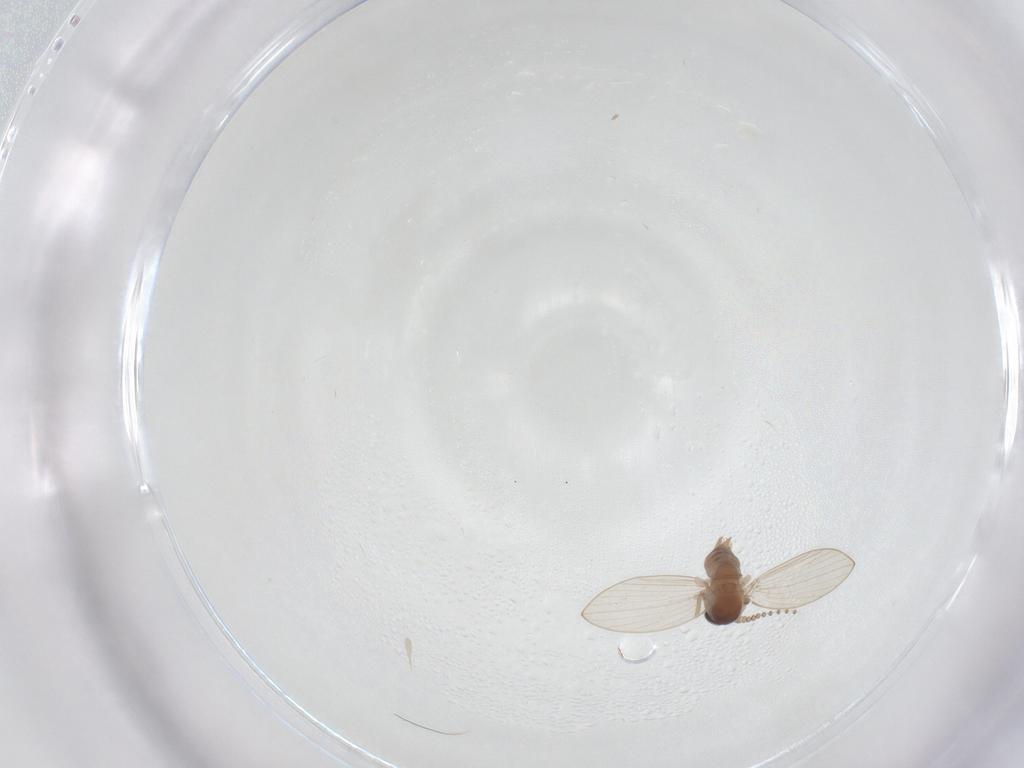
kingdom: Animalia
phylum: Arthropoda
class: Insecta
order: Diptera
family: Psychodidae
